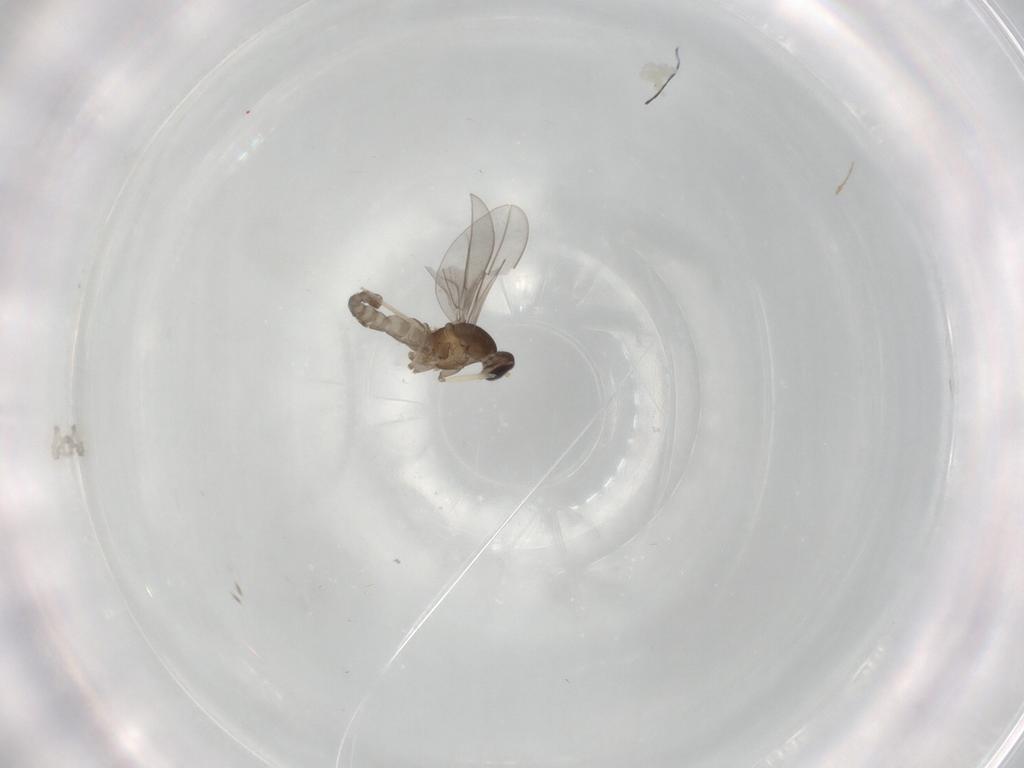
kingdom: Animalia
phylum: Arthropoda
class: Insecta
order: Diptera
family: Cecidomyiidae
